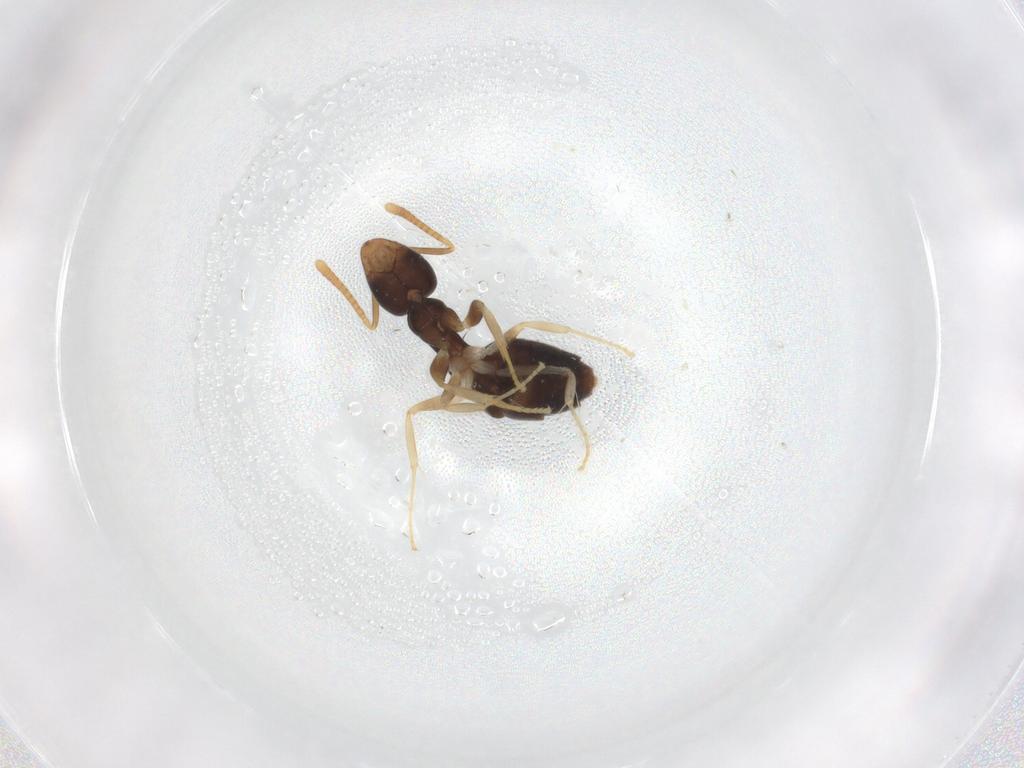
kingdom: Animalia
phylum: Arthropoda
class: Insecta
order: Hymenoptera
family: Formicidae
